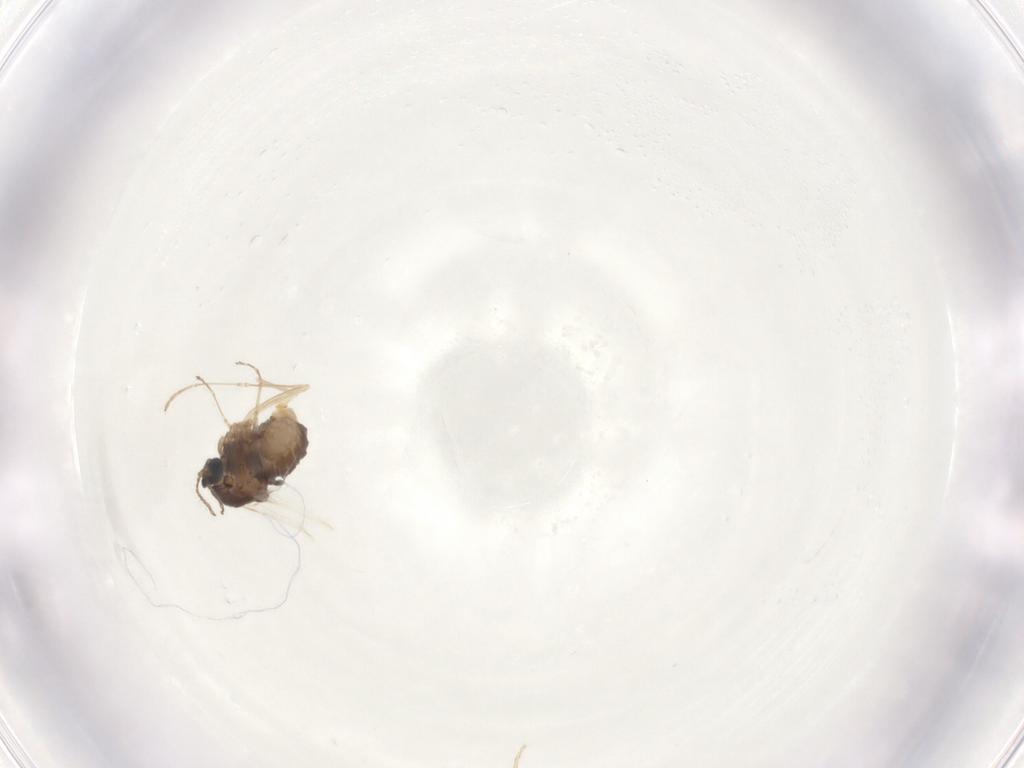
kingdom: Animalia
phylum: Arthropoda
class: Insecta
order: Diptera
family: Cecidomyiidae
